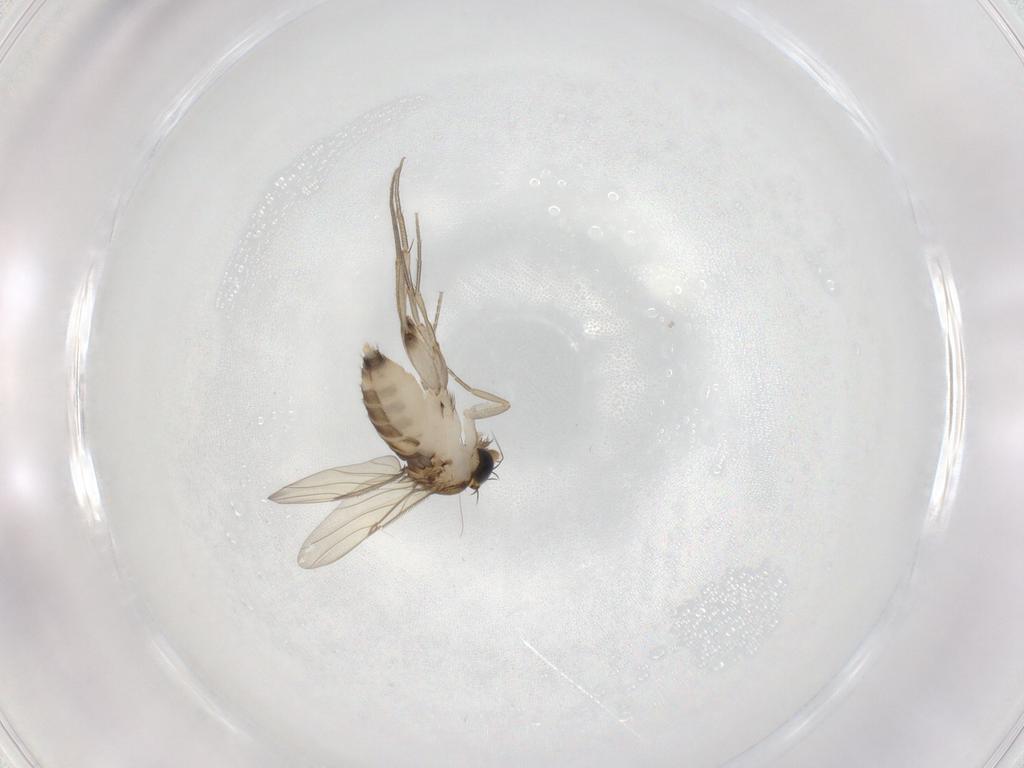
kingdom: Animalia
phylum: Arthropoda
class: Insecta
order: Diptera
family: Phoridae
